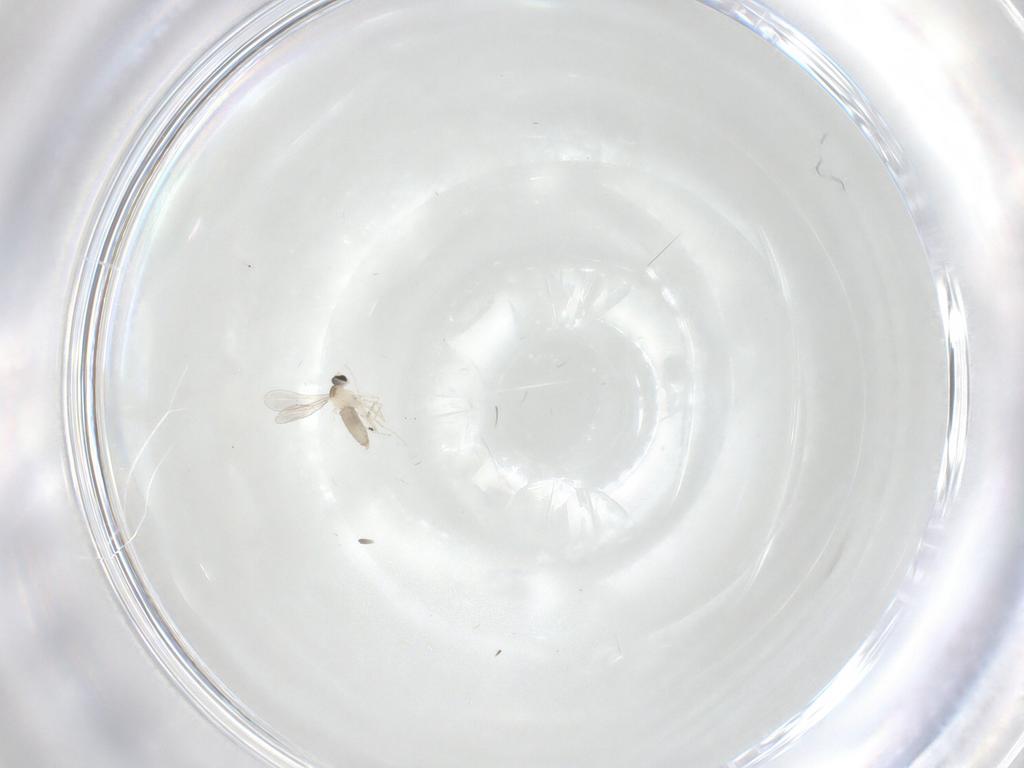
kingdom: Animalia
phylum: Arthropoda
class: Insecta
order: Diptera
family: Cecidomyiidae
